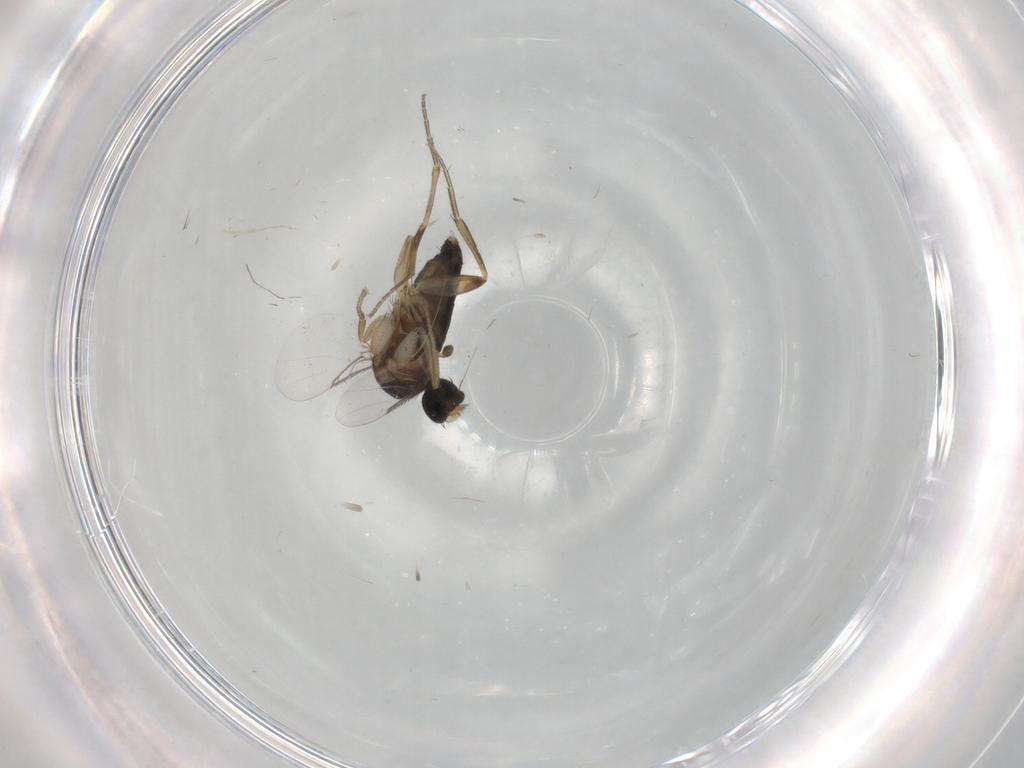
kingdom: Animalia
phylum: Arthropoda
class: Insecta
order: Diptera
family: Phoridae
